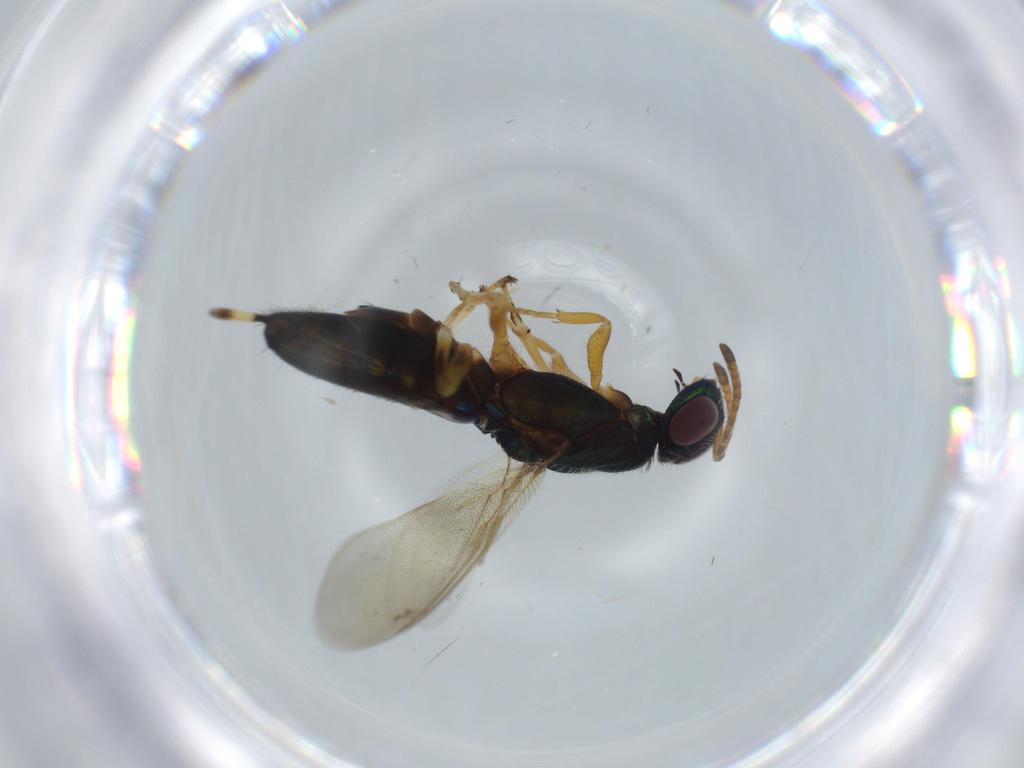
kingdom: Animalia
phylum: Arthropoda
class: Insecta
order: Hymenoptera
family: Eupelmidae
